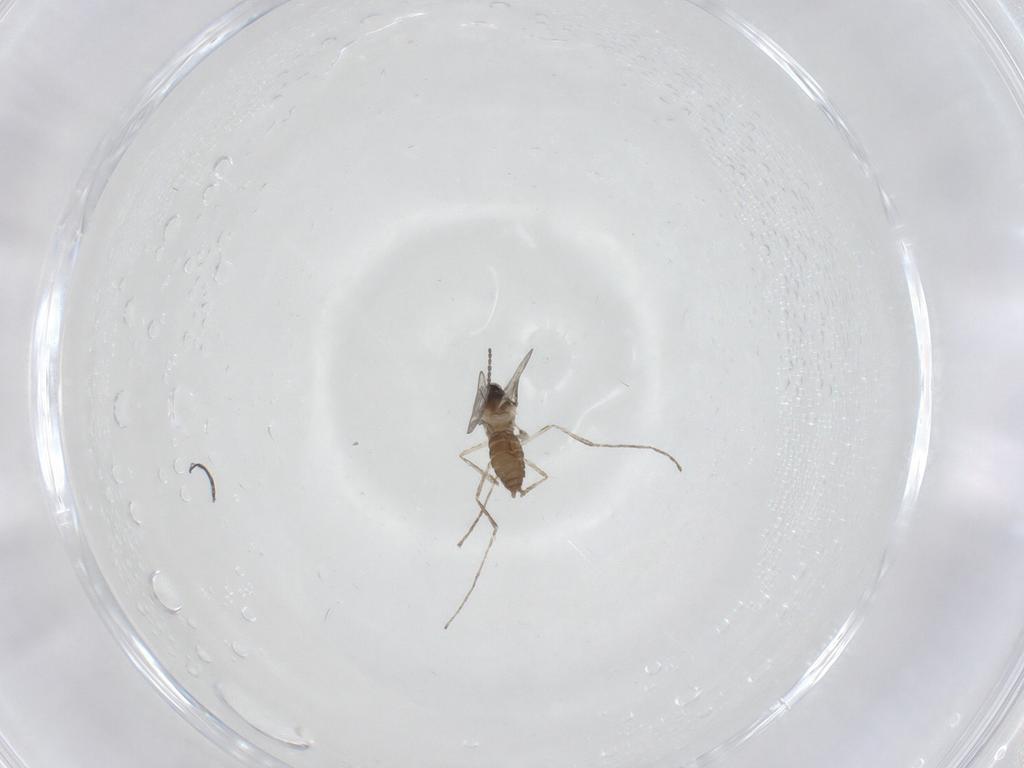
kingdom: Animalia
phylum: Arthropoda
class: Insecta
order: Diptera
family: Cecidomyiidae
